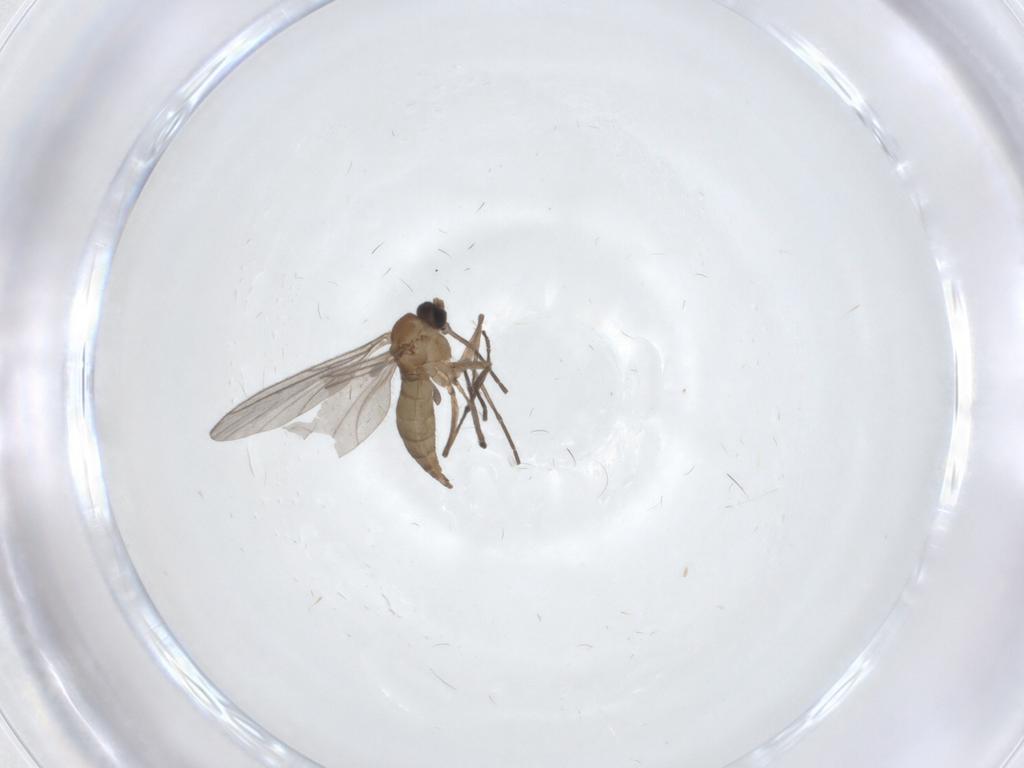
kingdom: Animalia
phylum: Arthropoda
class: Insecta
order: Diptera
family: Sciaridae
